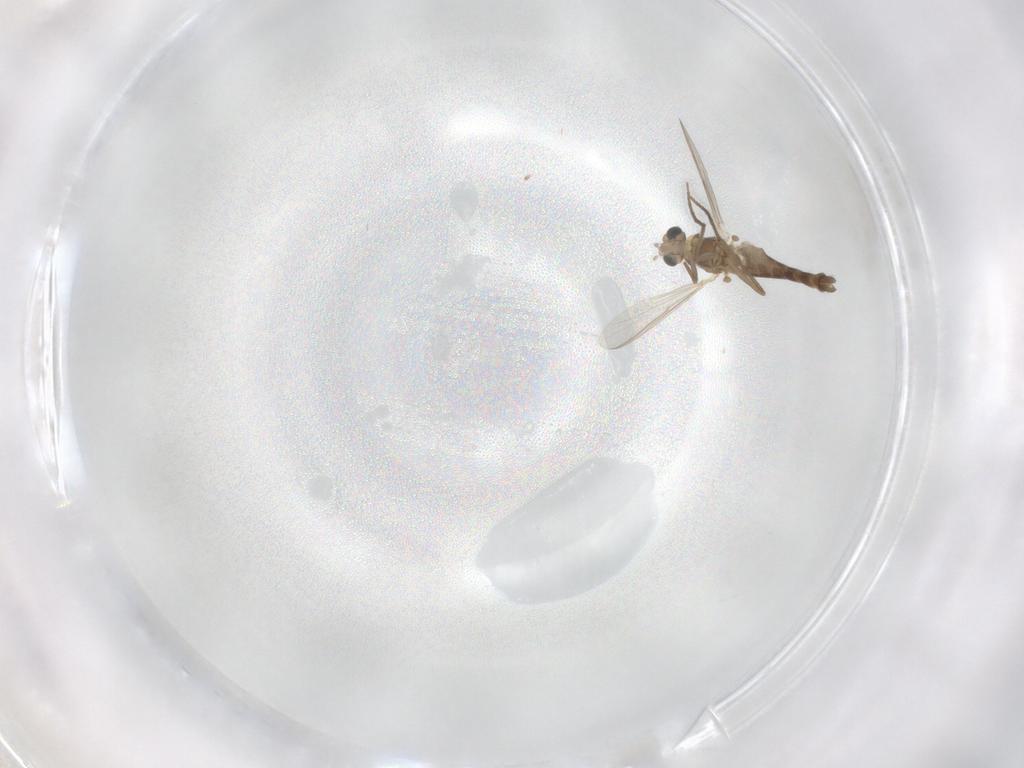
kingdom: Animalia
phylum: Arthropoda
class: Insecta
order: Diptera
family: Chironomidae
